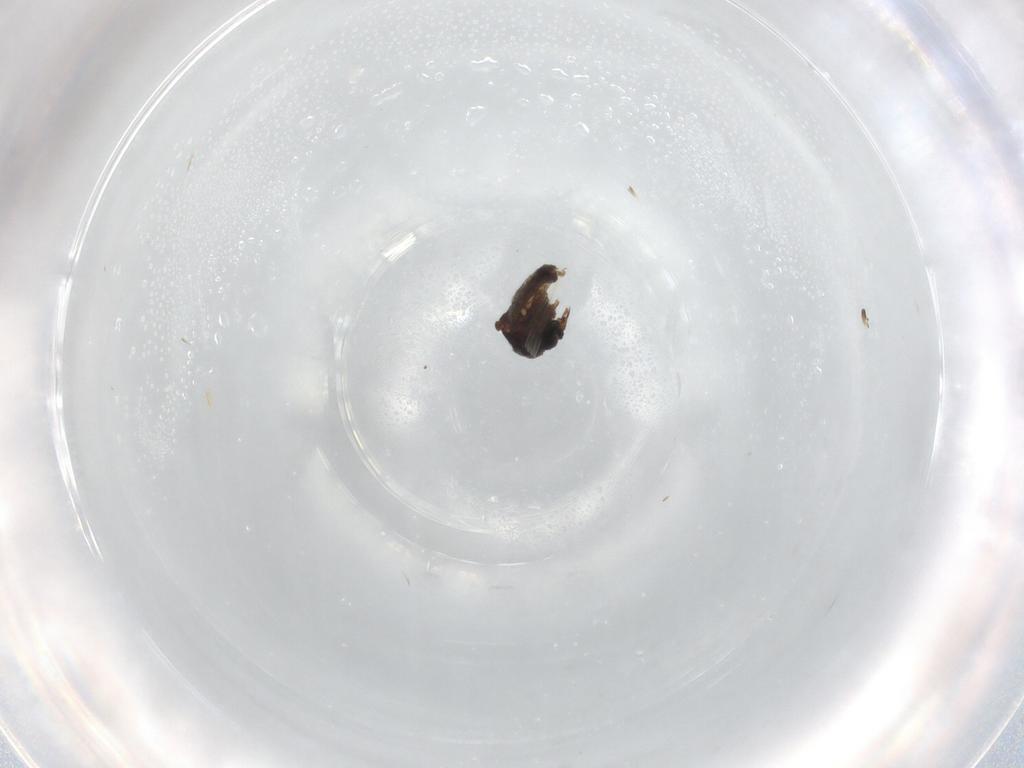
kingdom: Animalia
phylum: Arthropoda
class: Insecta
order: Diptera
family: Ceratopogonidae
